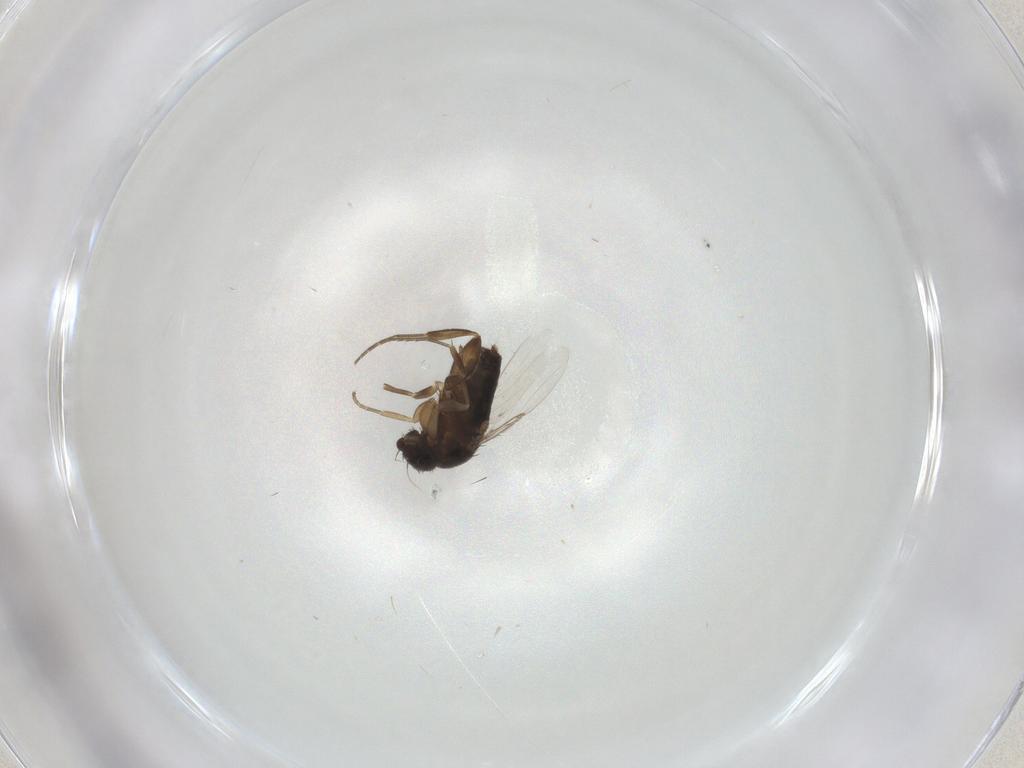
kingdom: Animalia
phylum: Arthropoda
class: Insecta
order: Diptera
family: Phoridae
